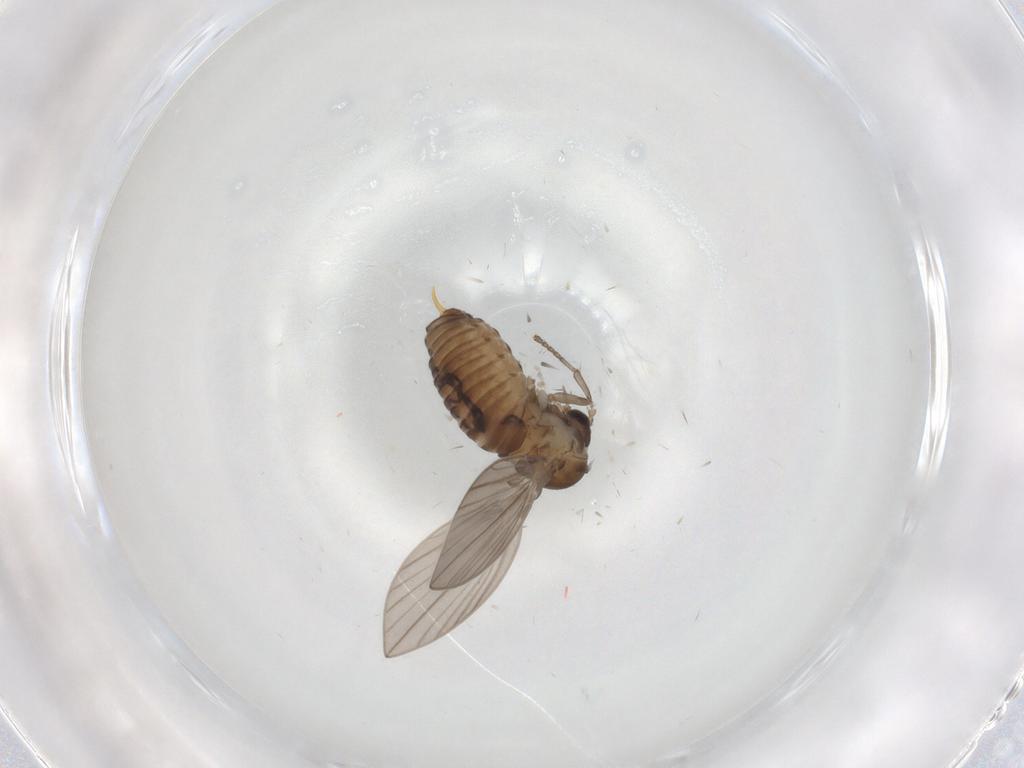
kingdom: Animalia
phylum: Arthropoda
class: Insecta
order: Diptera
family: Psychodidae
